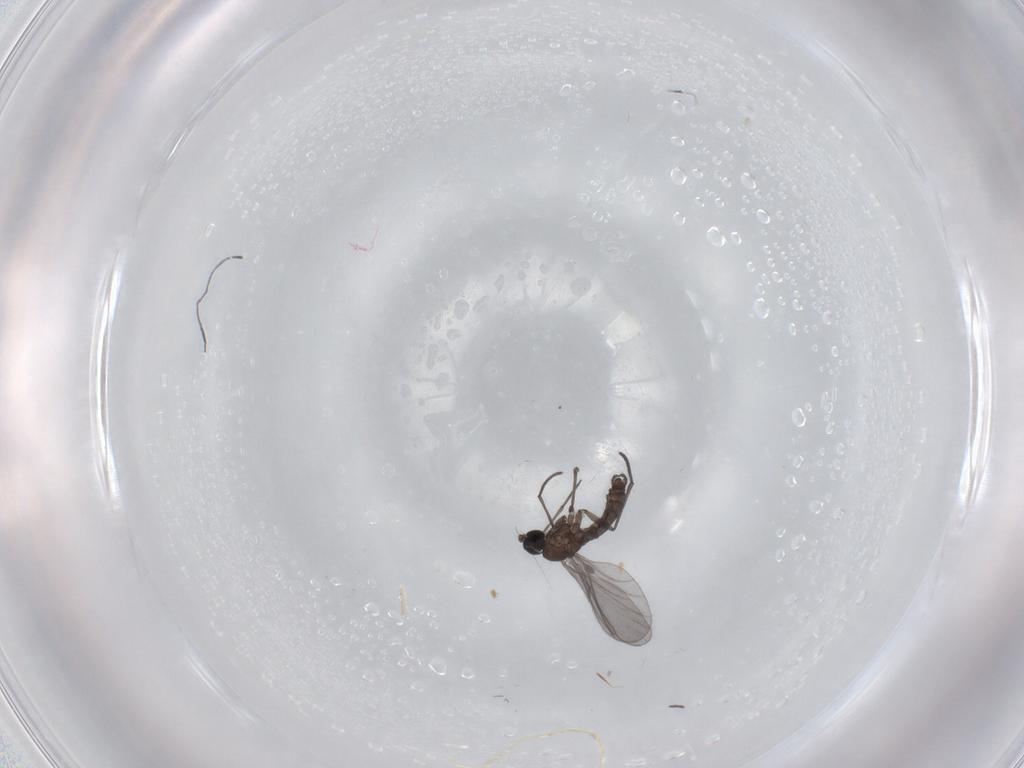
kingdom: Animalia
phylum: Arthropoda
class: Insecta
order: Diptera
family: Sciaridae
